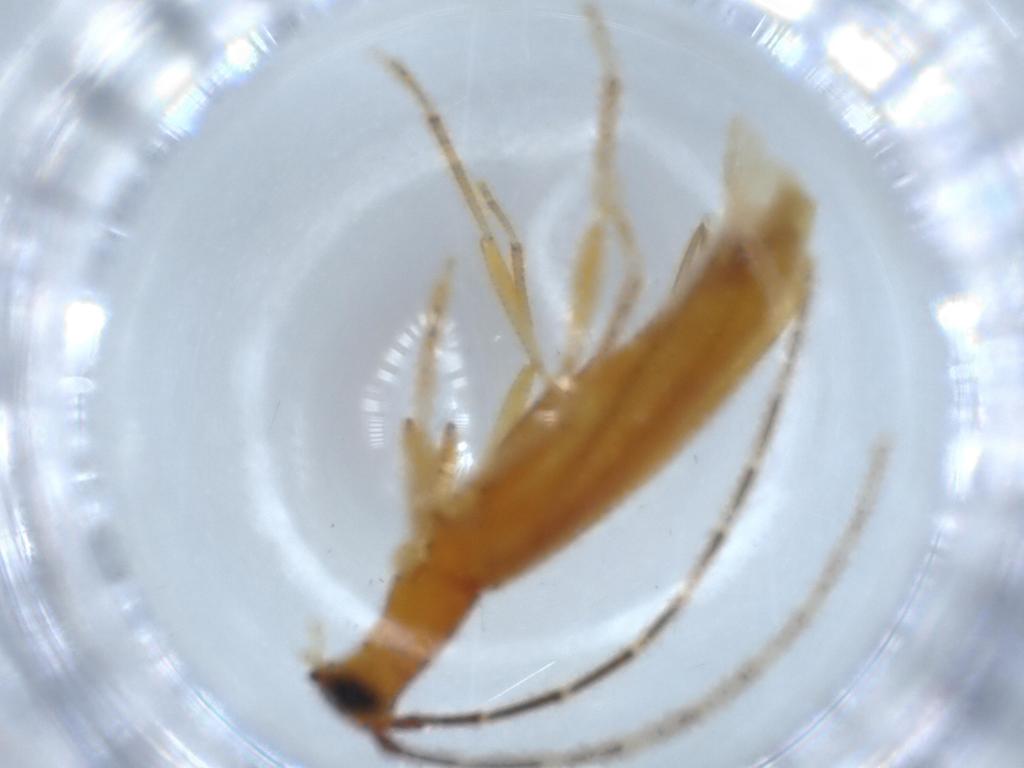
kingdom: Animalia
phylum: Arthropoda
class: Insecta
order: Coleoptera
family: Cerambycidae
